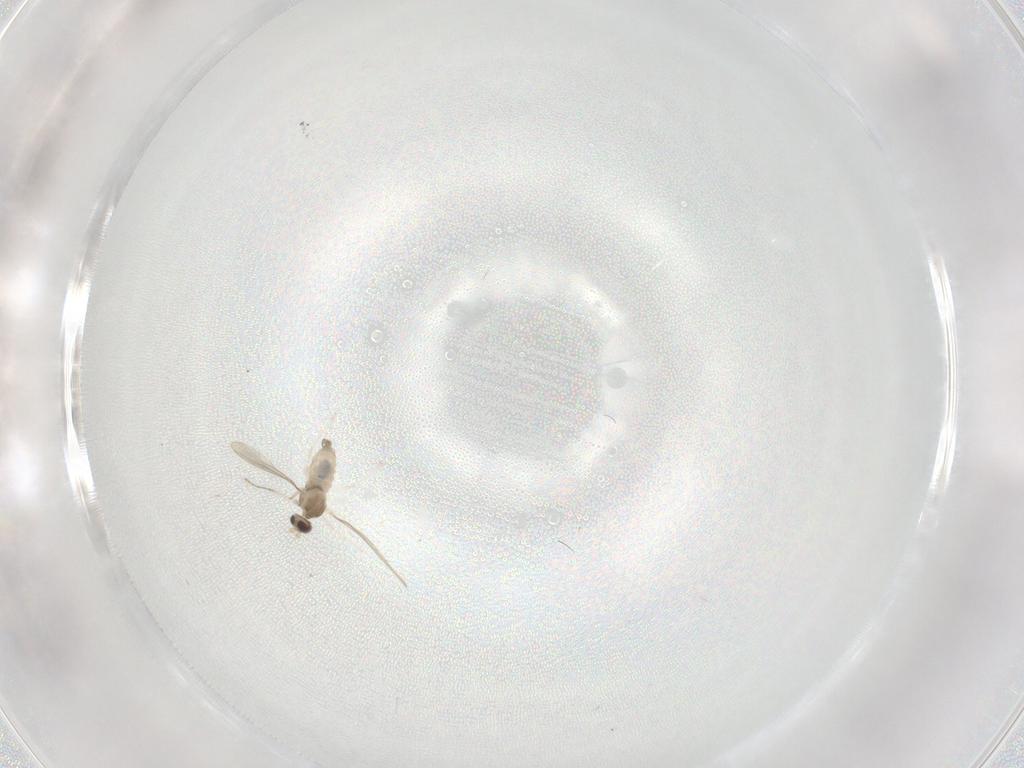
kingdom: Animalia
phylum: Arthropoda
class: Insecta
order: Diptera
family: Cecidomyiidae
